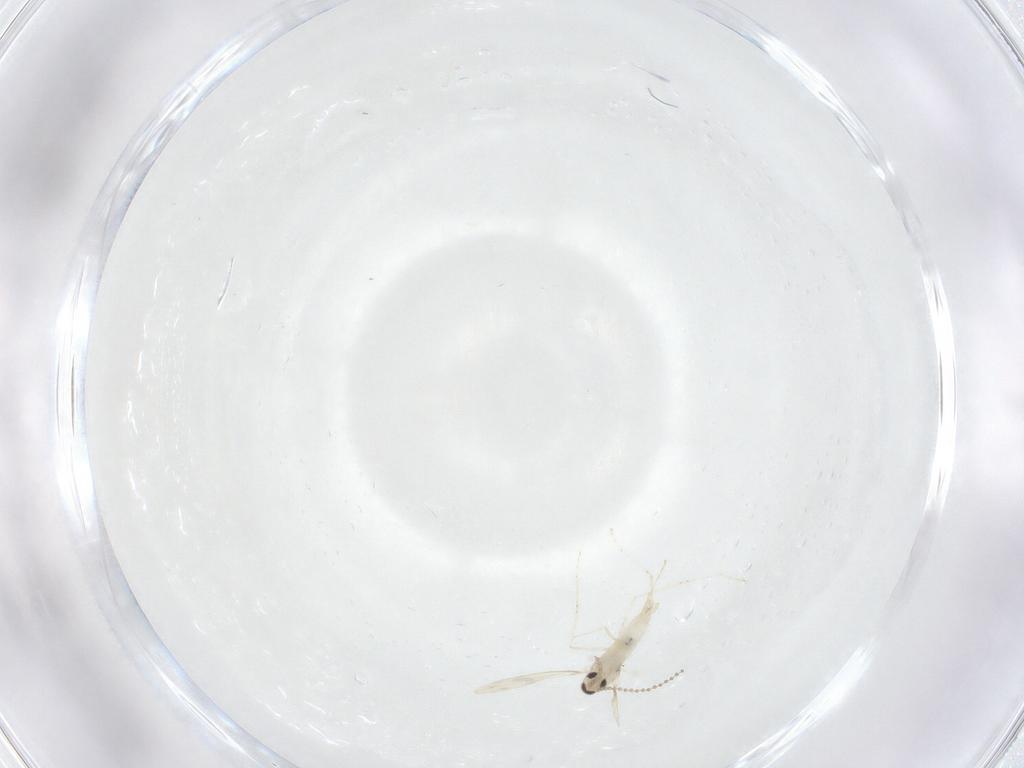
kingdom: Animalia
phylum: Arthropoda
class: Insecta
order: Diptera
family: Cecidomyiidae
